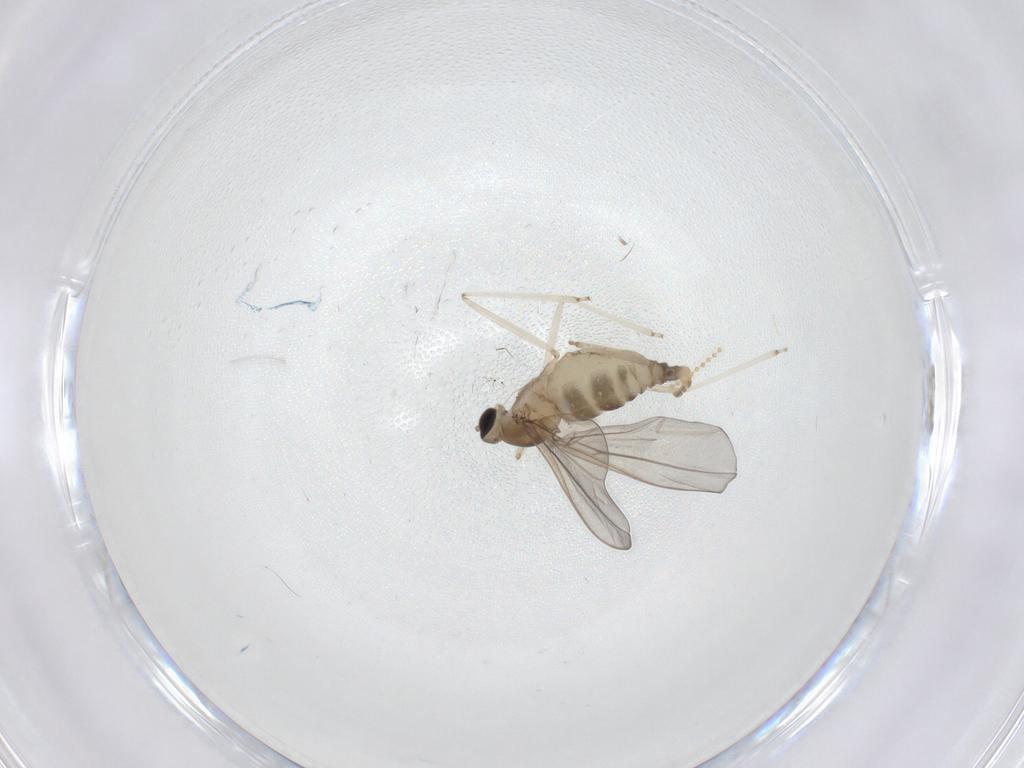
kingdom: Animalia
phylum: Arthropoda
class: Insecta
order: Diptera
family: Cecidomyiidae
